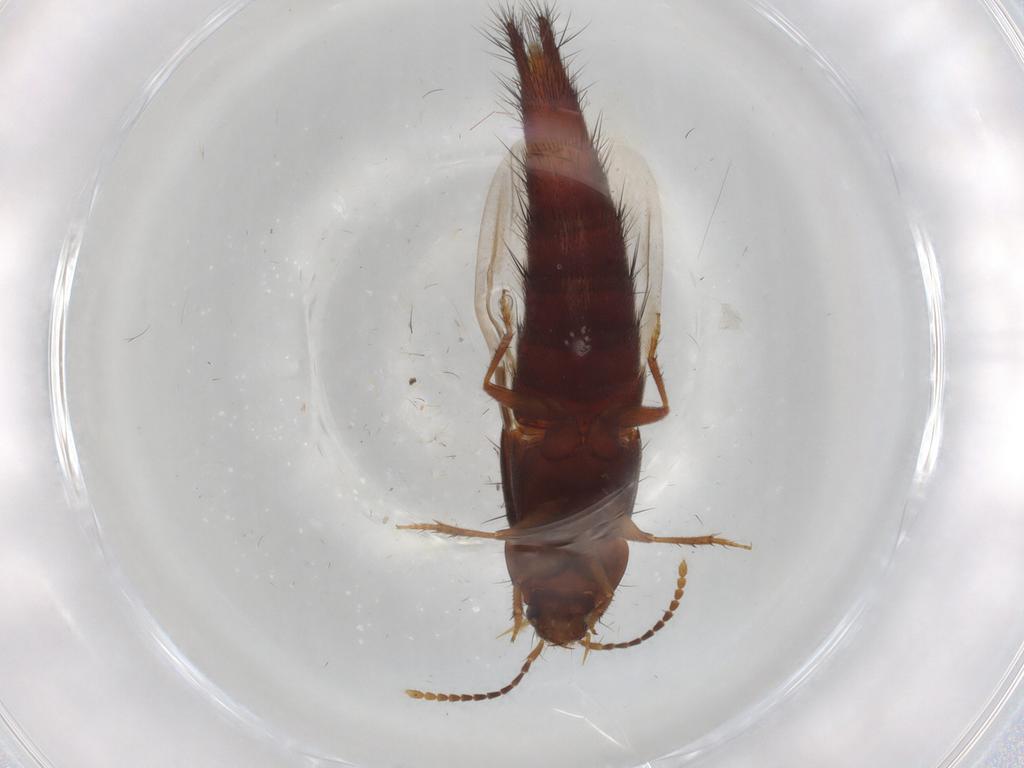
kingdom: Animalia
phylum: Arthropoda
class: Insecta
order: Coleoptera
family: Staphylinidae
